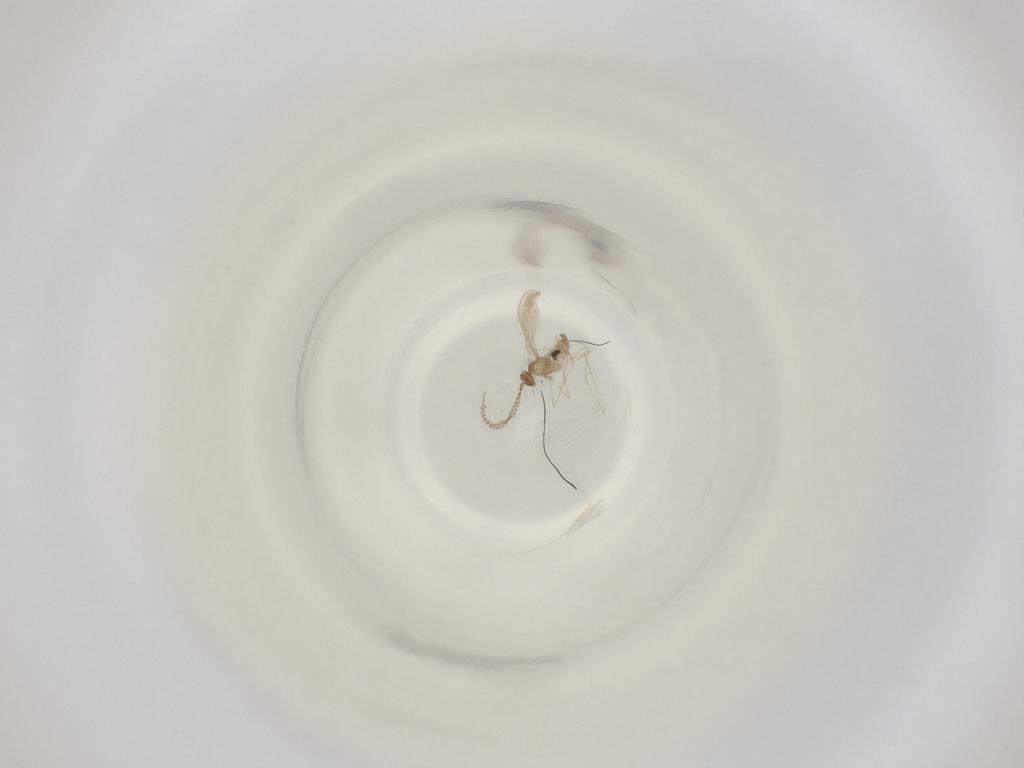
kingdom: Animalia
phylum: Arthropoda
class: Insecta
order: Diptera
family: Cecidomyiidae
